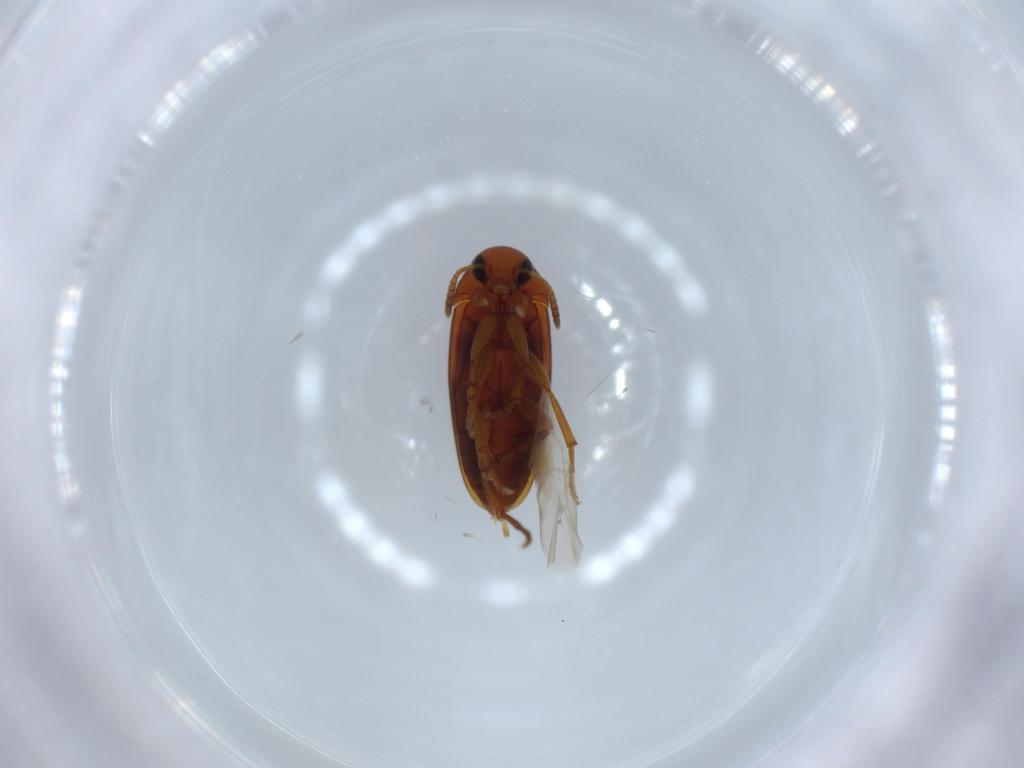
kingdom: Animalia
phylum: Arthropoda
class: Insecta
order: Coleoptera
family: Scraptiidae
